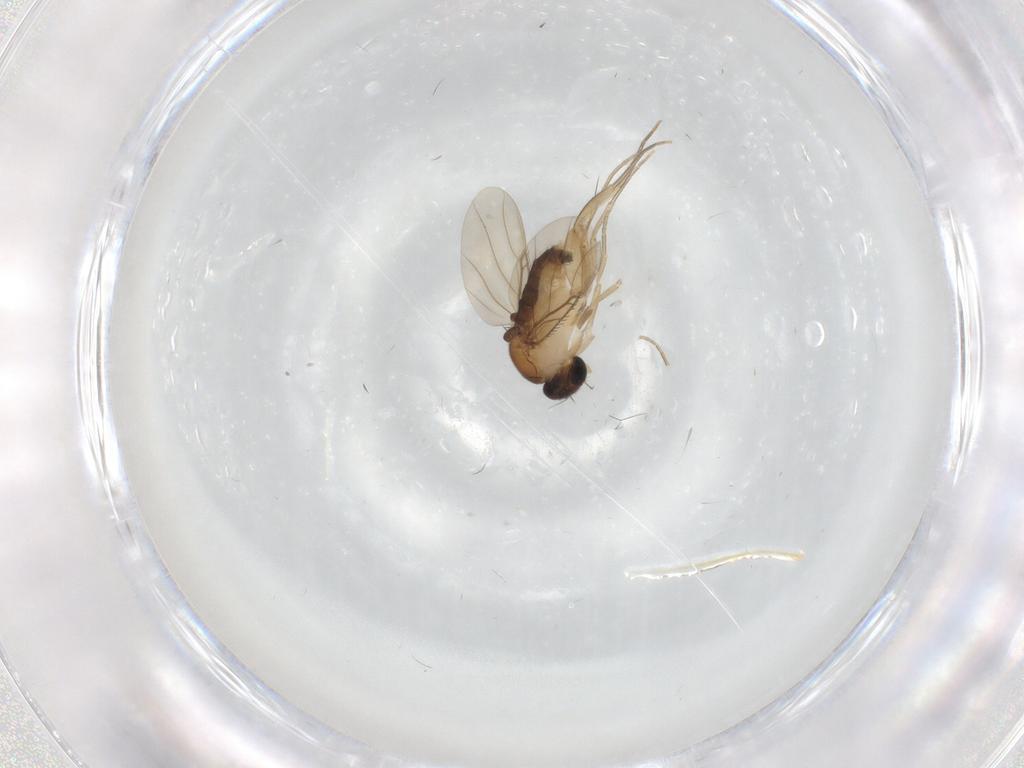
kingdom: Animalia
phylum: Arthropoda
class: Insecta
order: Diptera
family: Phoridae
